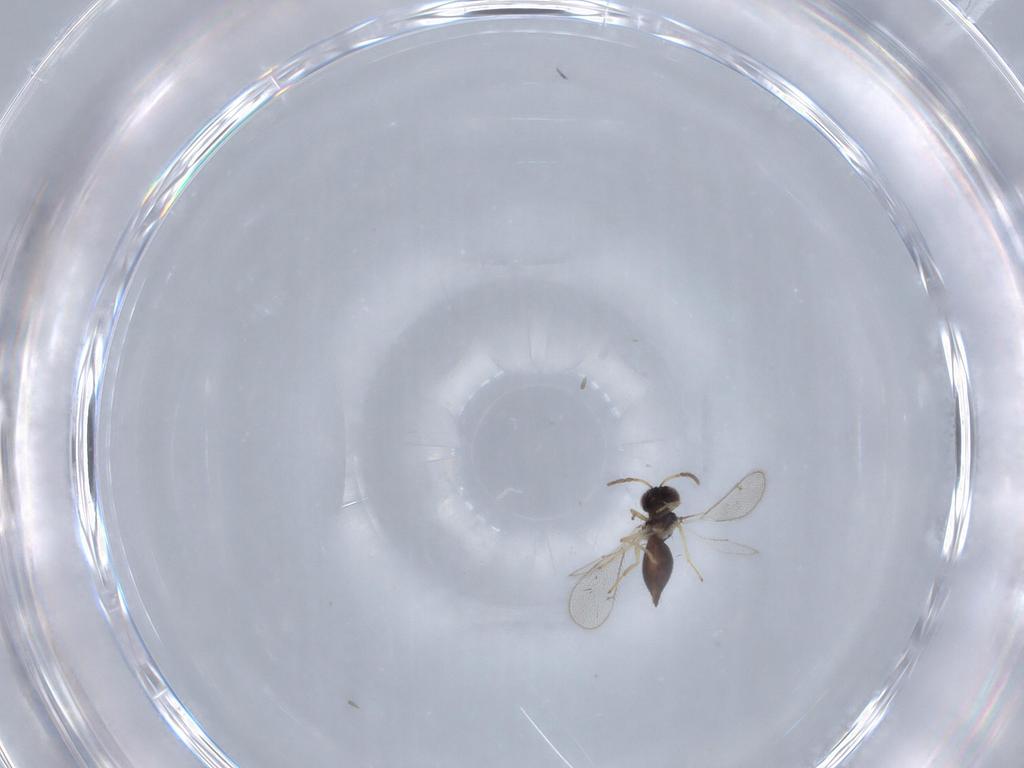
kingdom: Animalia
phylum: Arthropoda
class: Insecta
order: Hymenoptera
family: Eulophidae
